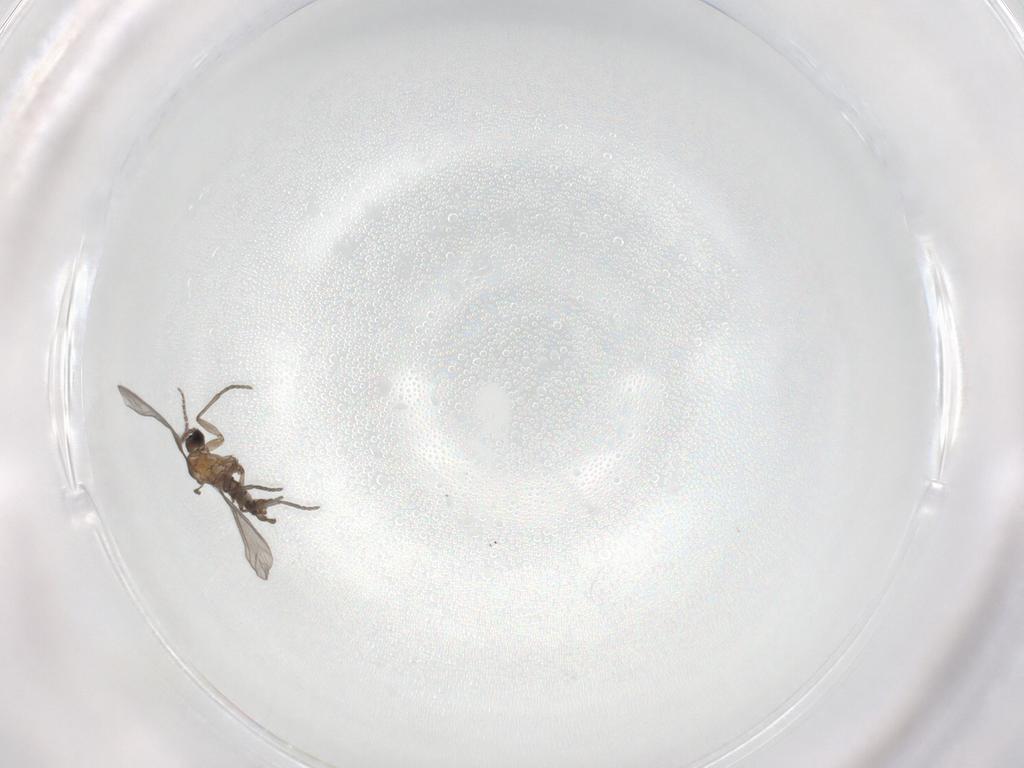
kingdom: Animalia
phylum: Arthropoda
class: Insecta
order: Diptera
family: Sciaridae
